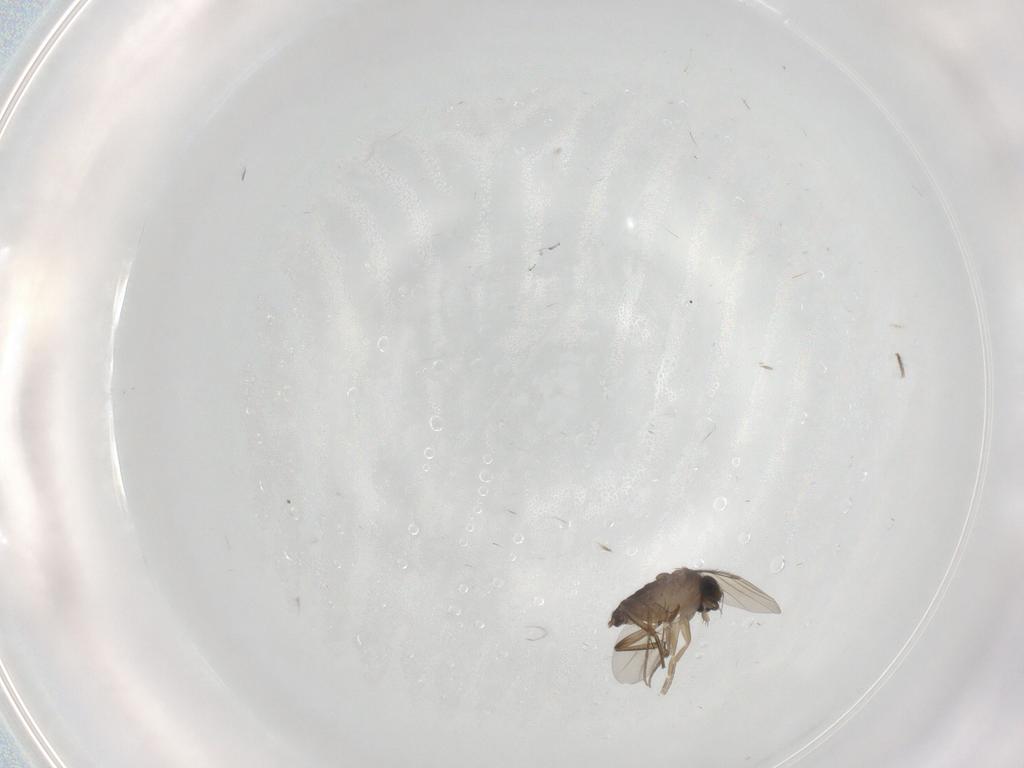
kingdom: Animalia
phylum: Arthropoda
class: Insecta
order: Diptera
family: Phoridae
